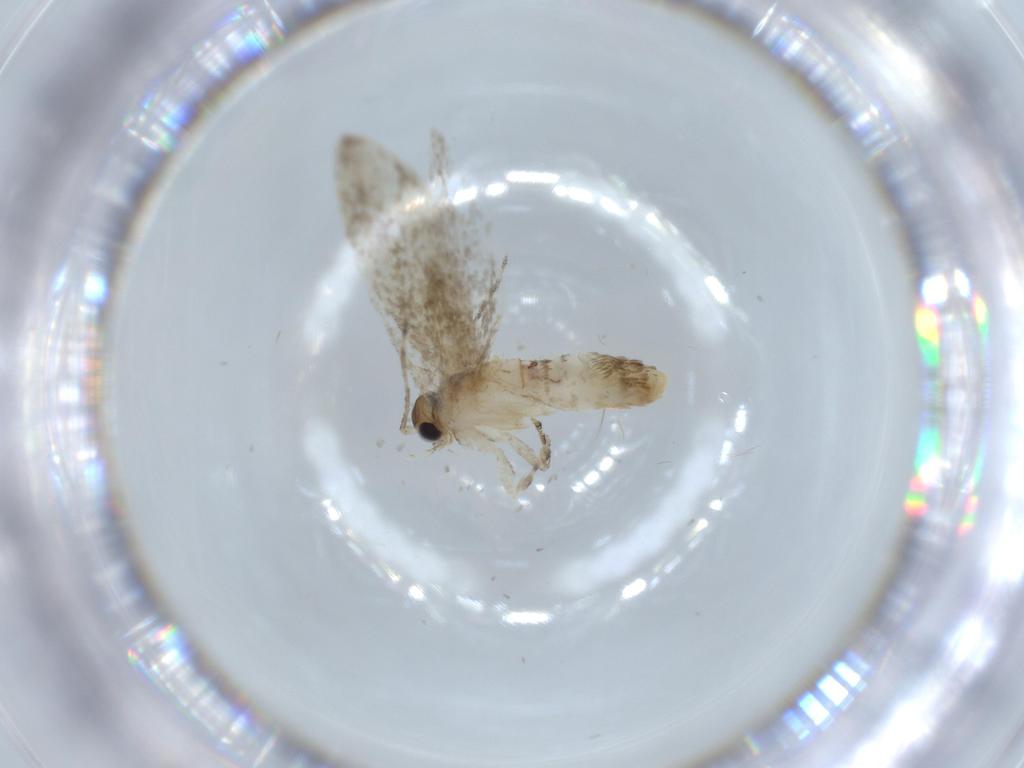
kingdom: Animalia
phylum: Arthropoda
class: Insecta
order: Lepidoptera
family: Tineidae
